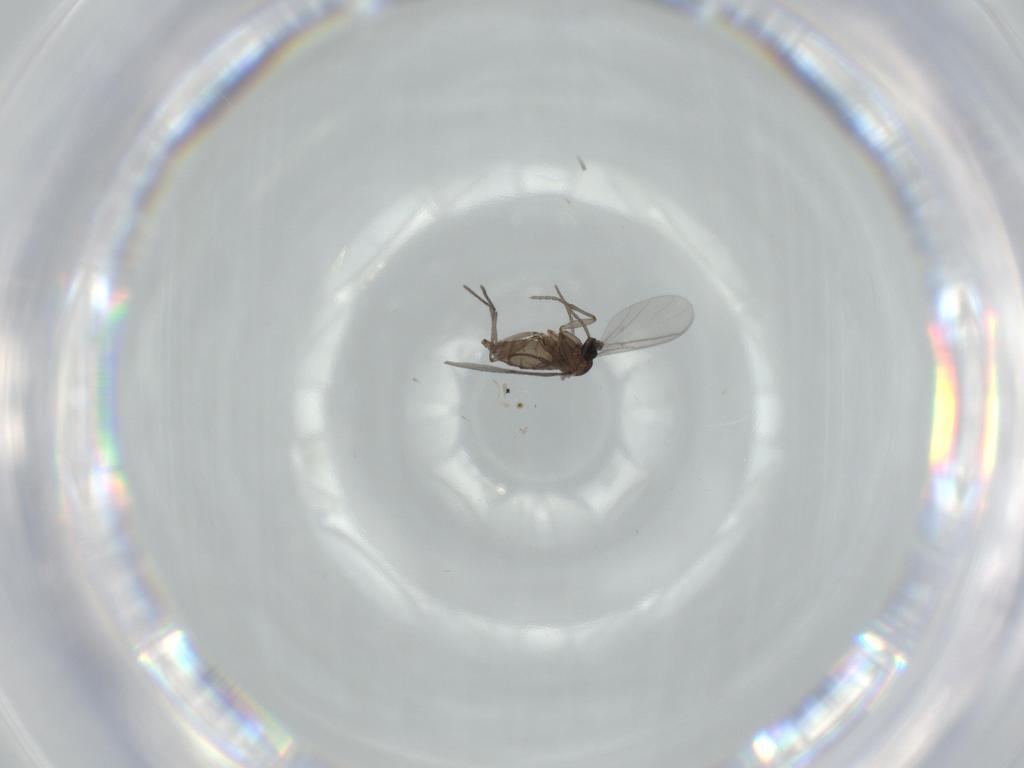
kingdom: Animalia
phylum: Arthropoda
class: Insecta
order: Diptera
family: Sciaridae
